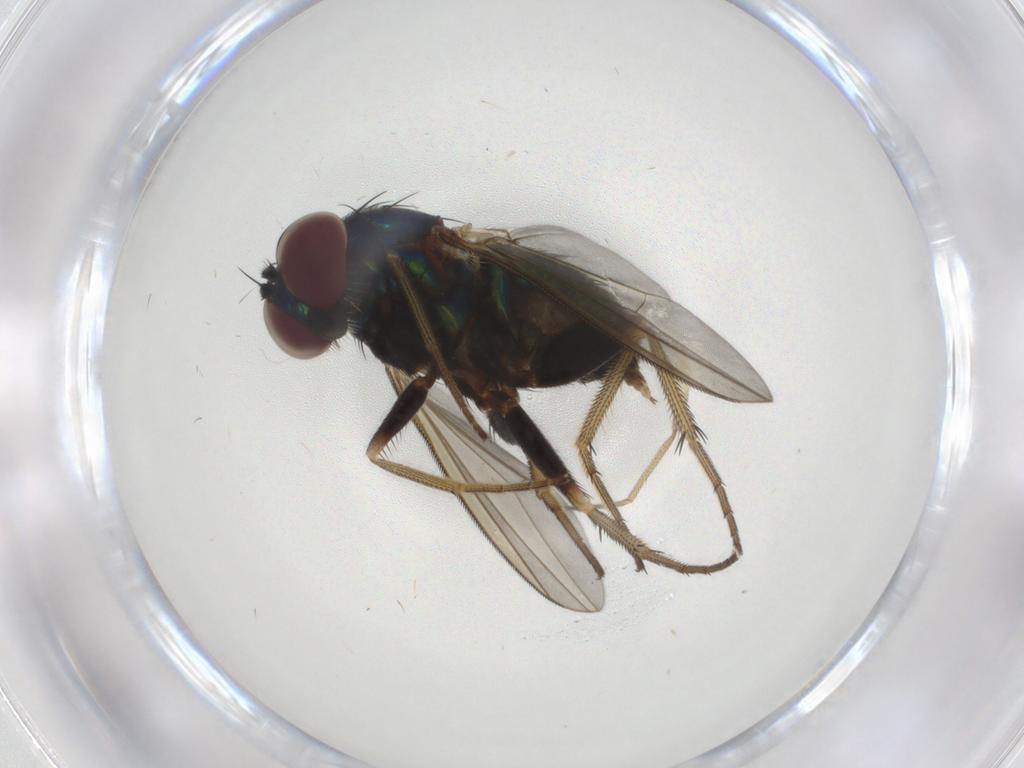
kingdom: Animalia
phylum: Arthropoda
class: Insecta
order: Diptera
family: Dolichopodidae
